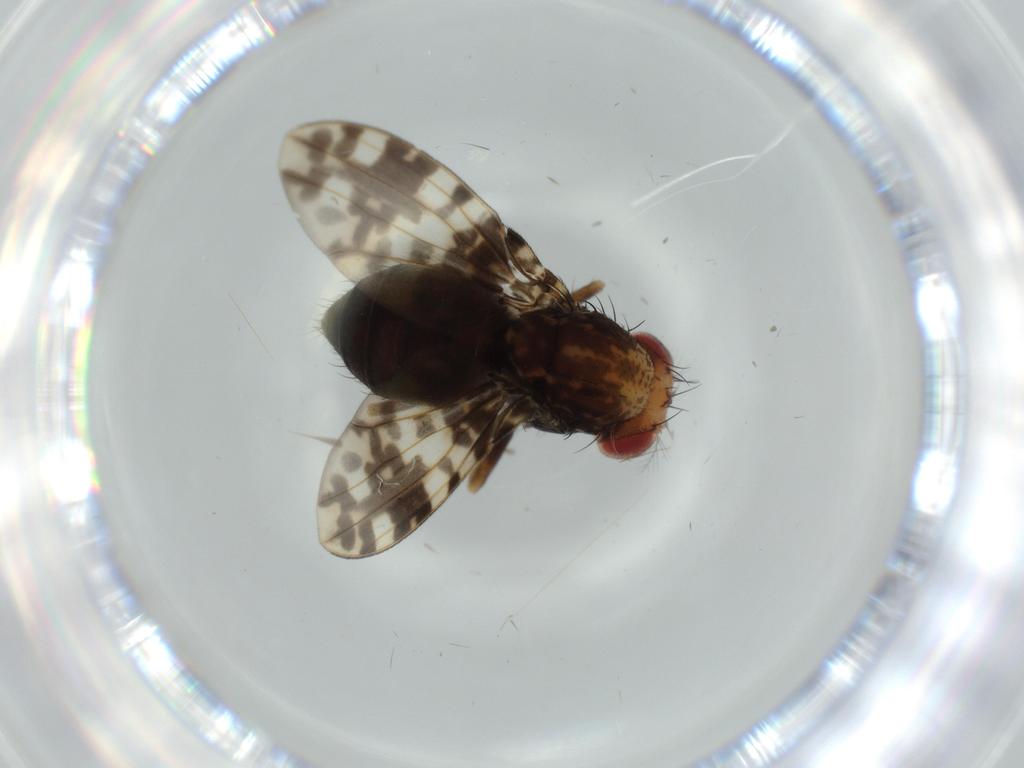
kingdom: Animalia
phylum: Arthropoda
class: Insecta
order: Diptera
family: Drosophilidae
